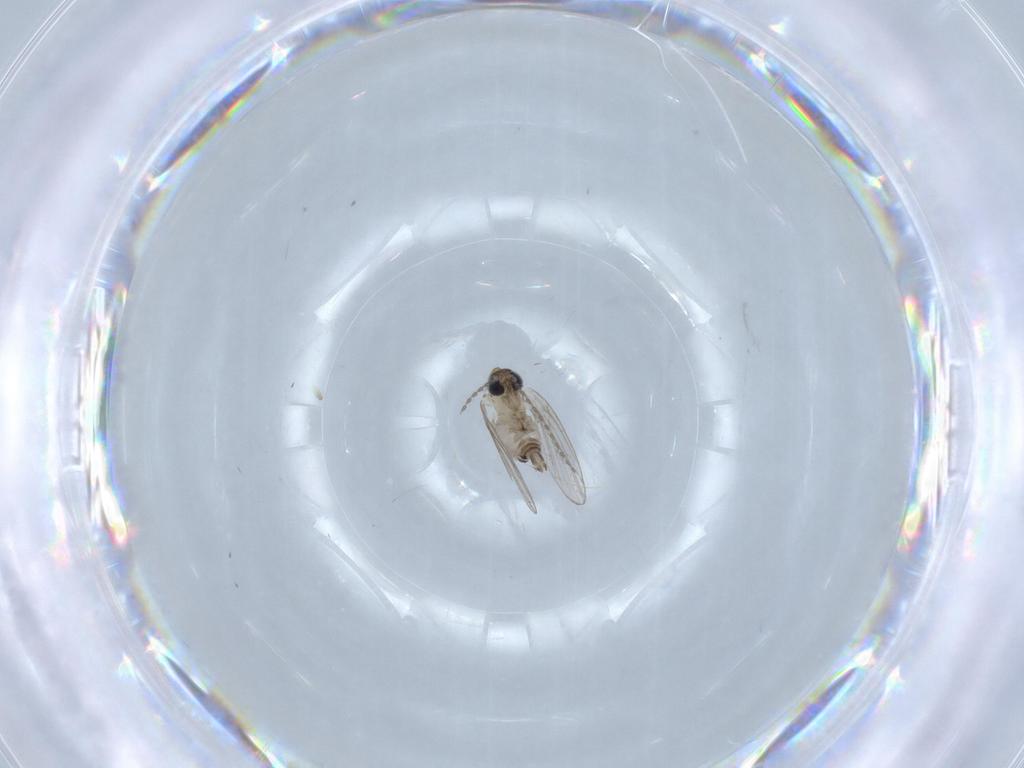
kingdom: Animalia
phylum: Arthropoda
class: Insecta
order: Diptera
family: Psychodidae
